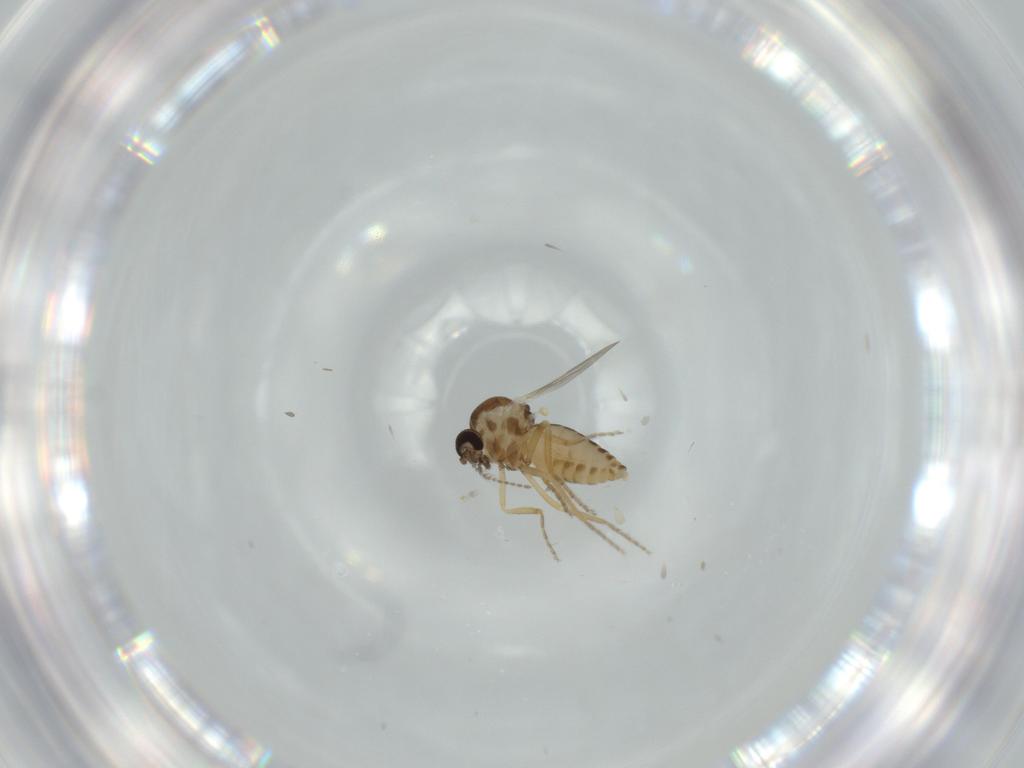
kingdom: Animalia
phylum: Arthropoda
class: Insecta
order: Diptera
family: Ceratopogonidae
